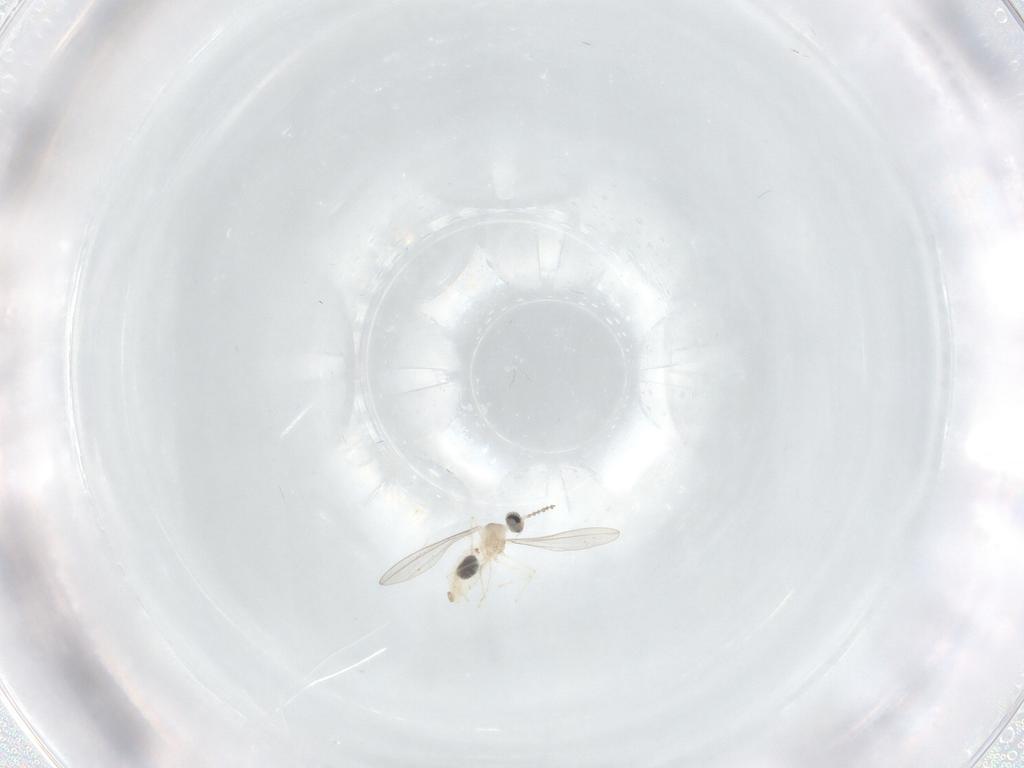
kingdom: Animalia
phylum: Arthropoda
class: Insecta
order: Diptera
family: Cecidomyiidae
